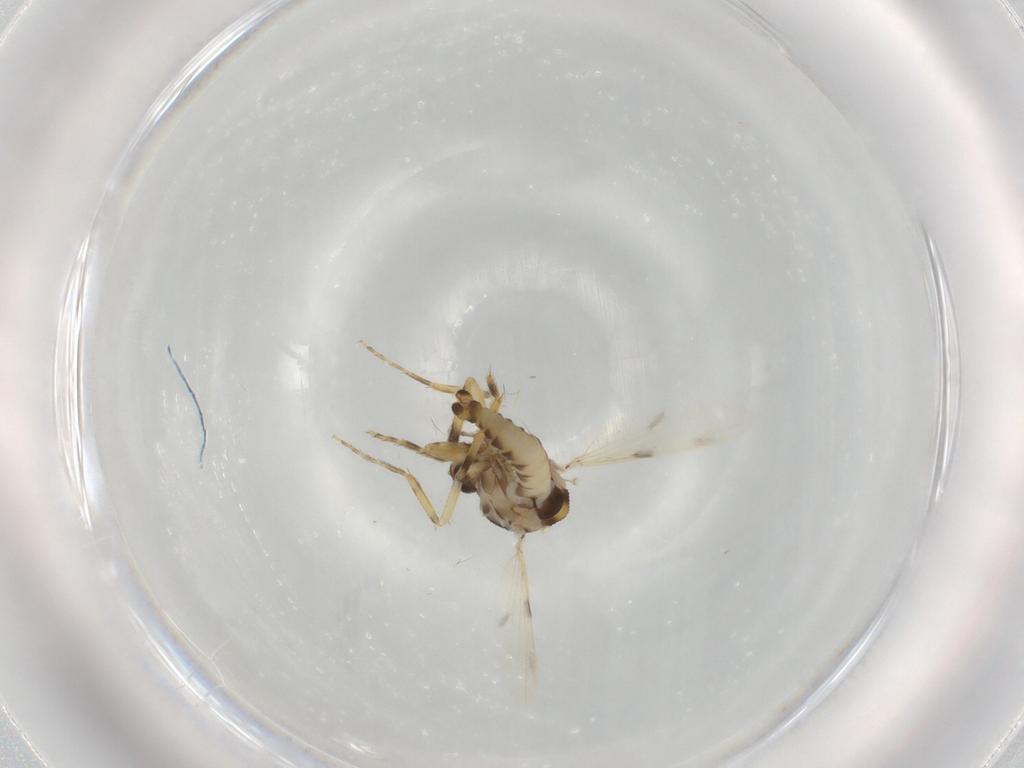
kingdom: Animalia
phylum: Arthropoda
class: Insecta
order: Diptera
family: Ceratopogonidae
